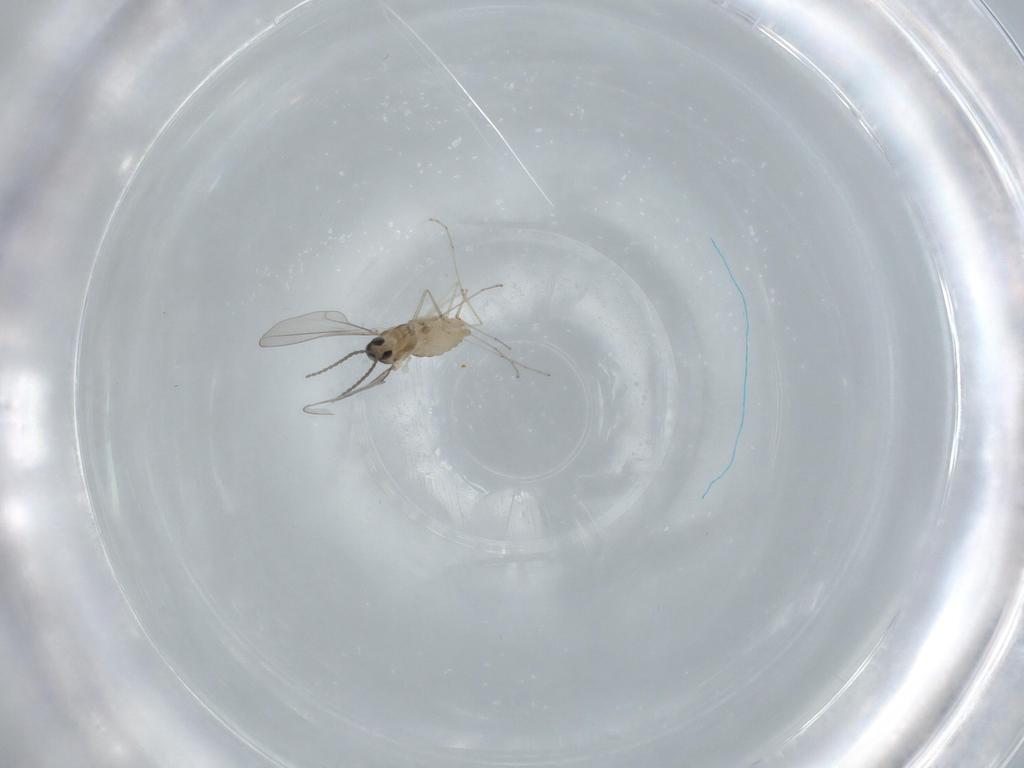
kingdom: Animalia
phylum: Arthropoda
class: Insecta
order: Diptera
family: Cecidomyiidae
